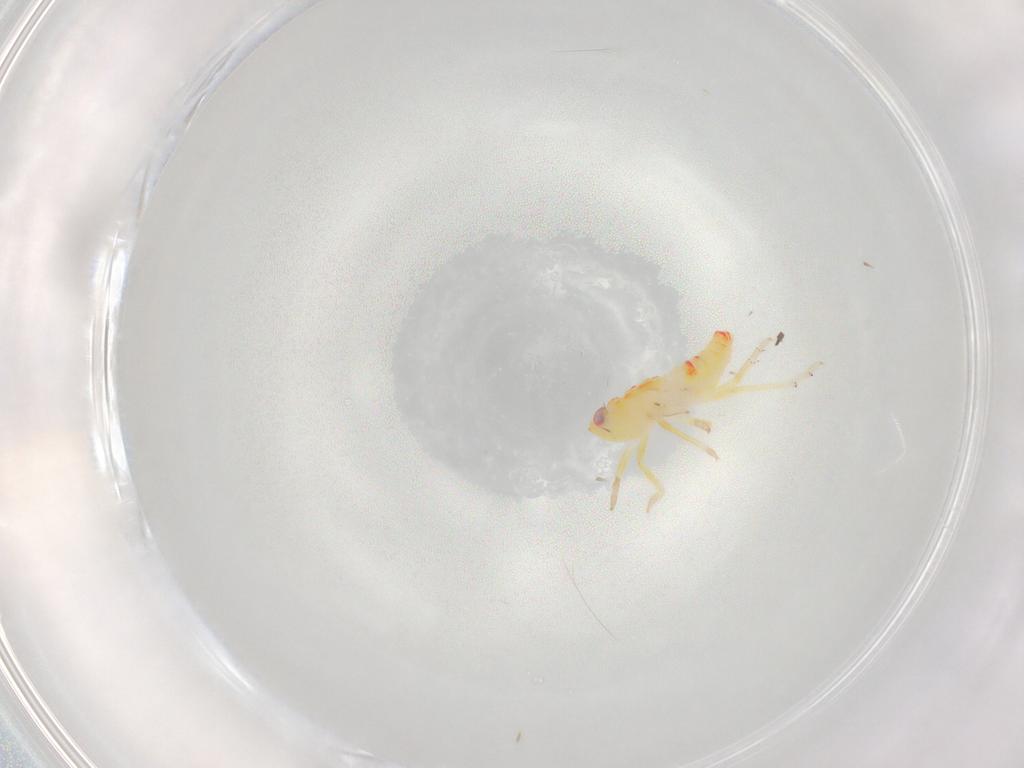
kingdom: Animalia
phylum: Arthropoda
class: Insecta
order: Hemiptera
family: Tropiduchidae
